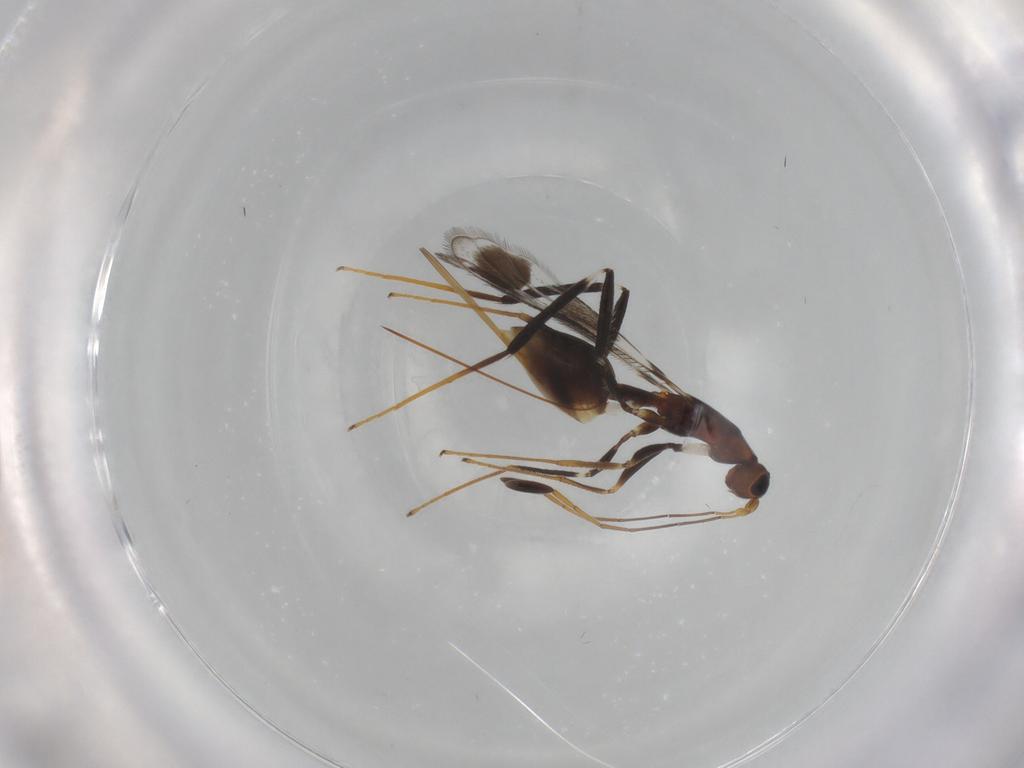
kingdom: Animalia
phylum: Arthropoda
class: Insecta
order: Hymenoptera
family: Mymaridae
